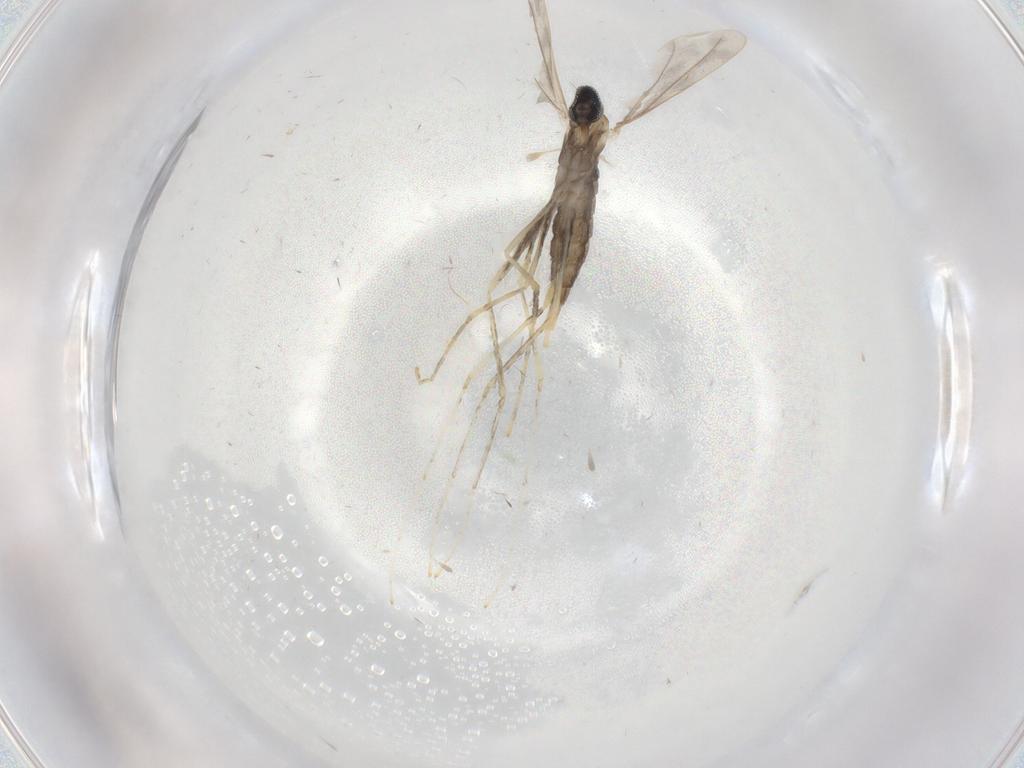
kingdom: Animalia
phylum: Arthropoda
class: Insecta
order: Diptera
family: Cecidomyiidae
